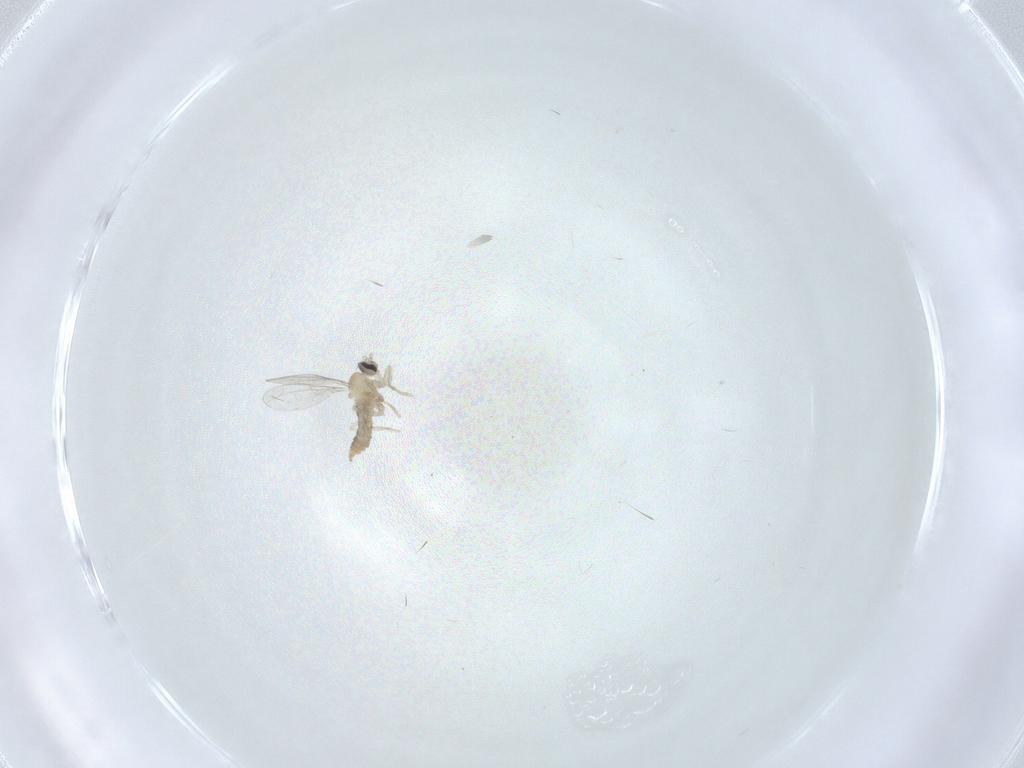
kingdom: Animalia
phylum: Arthropoda
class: Insecta
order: Diptera
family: Cecidomyiidae
